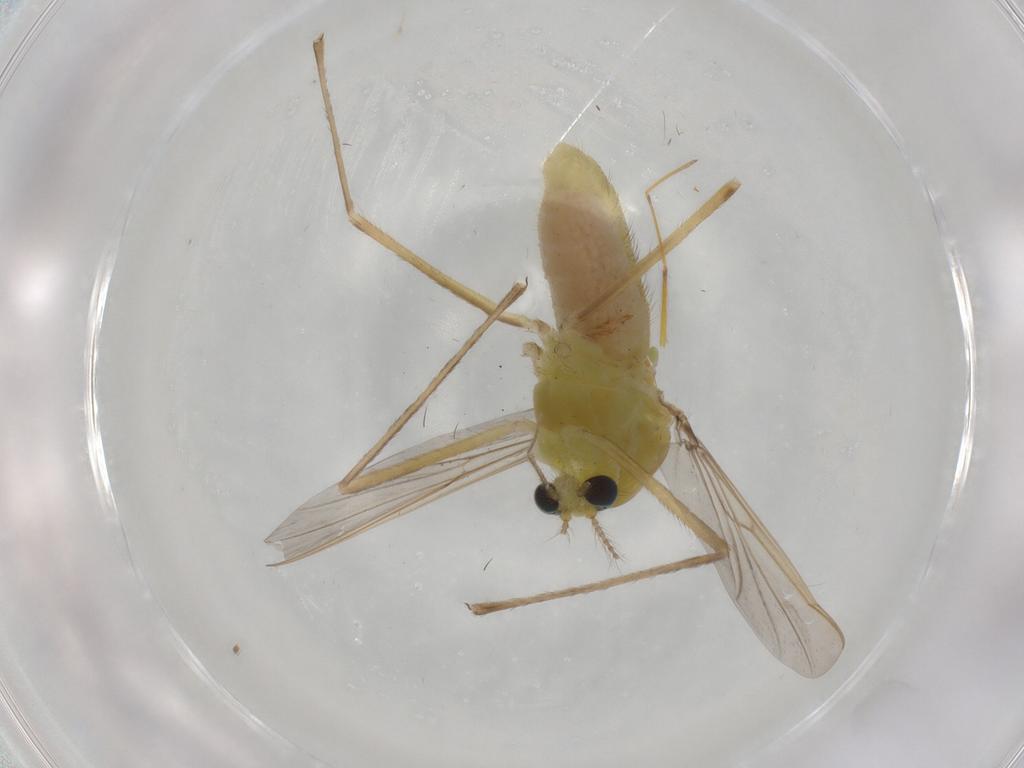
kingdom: Animalia
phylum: Arthropoda
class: Insecta
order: Diptera
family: Chironomidae
